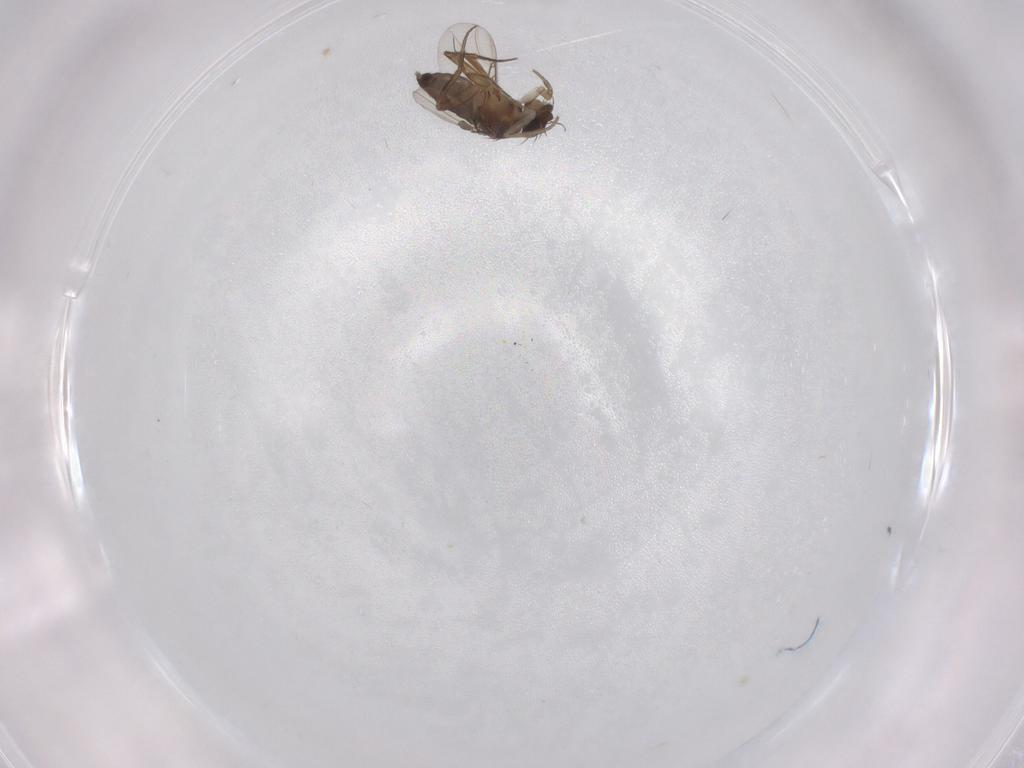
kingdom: Animalia
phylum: Arthropoda
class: Insecta
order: Diptera
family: Phoridae
